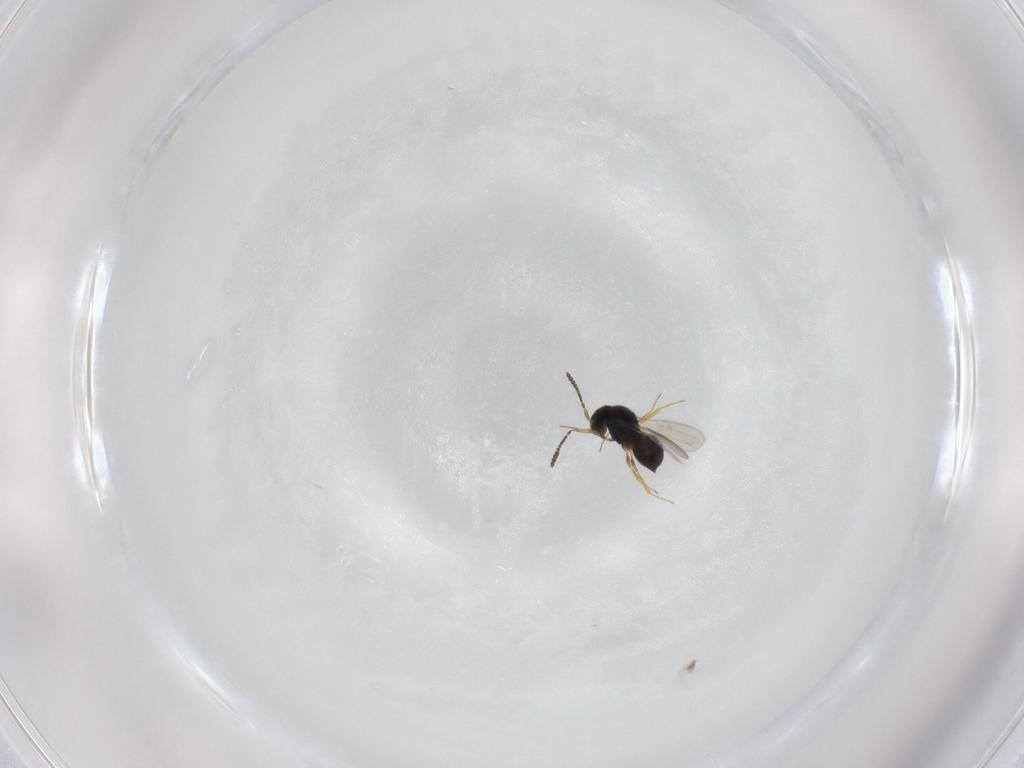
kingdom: Animalia
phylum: Arthropoda
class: Insecta
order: Hymenoptera
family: Scelionidae
